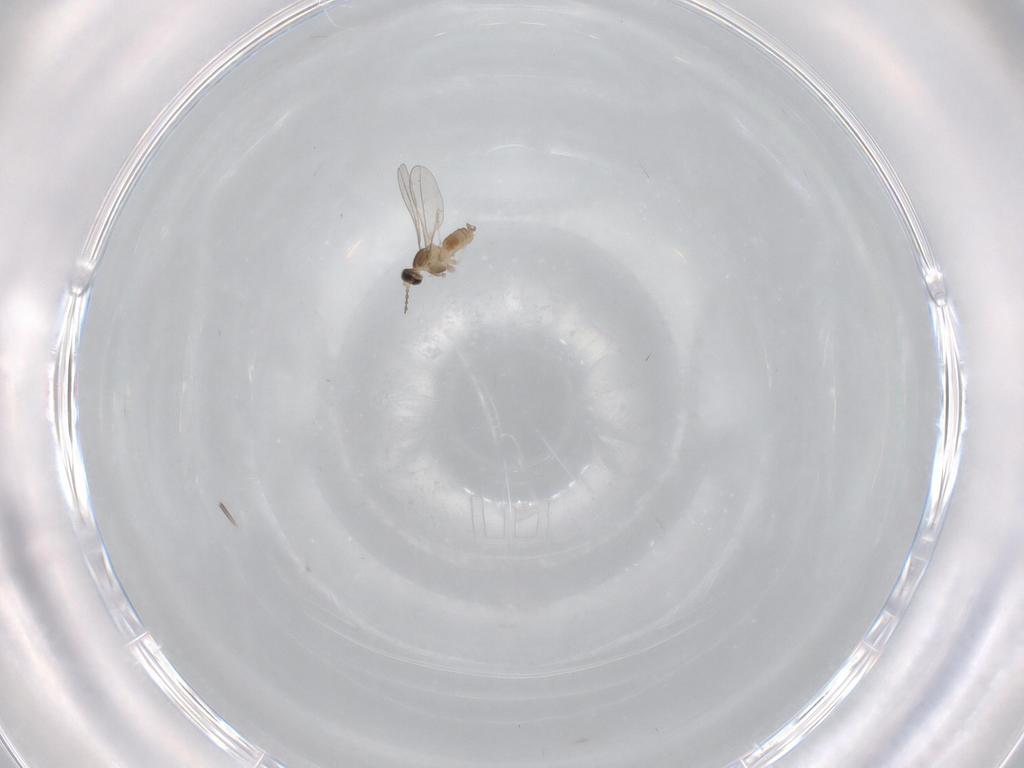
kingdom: Animalia
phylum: Arthropoda
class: Insecta
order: Diptera
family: Cecidomyiidae
